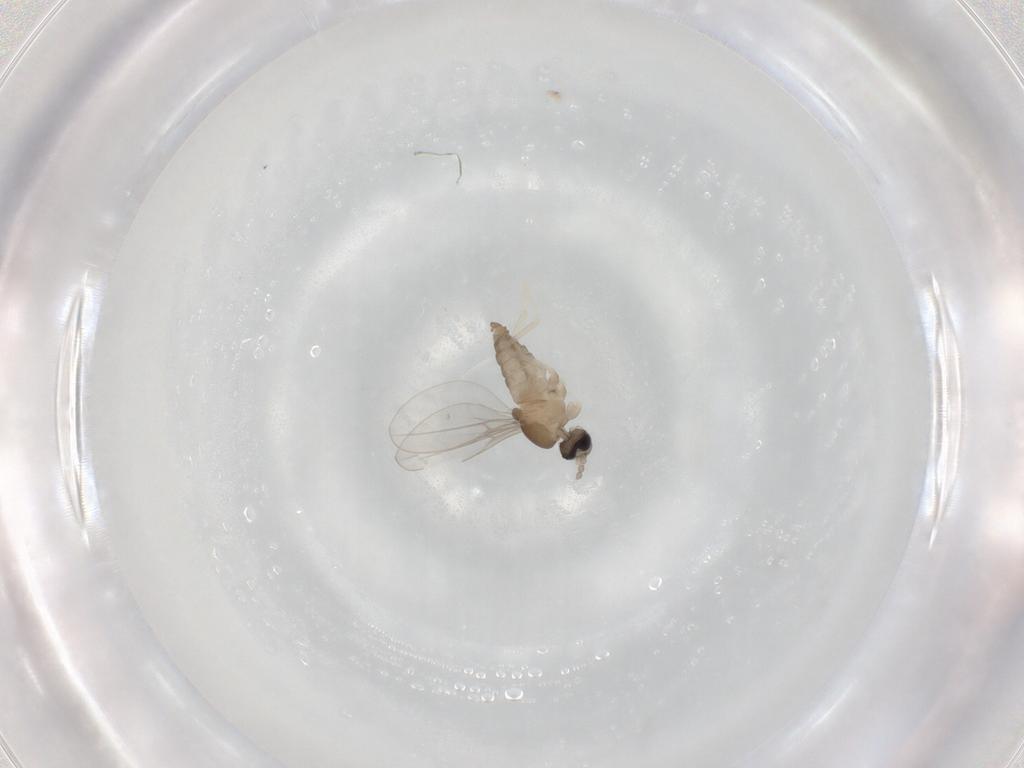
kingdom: Animalia
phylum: Arthropoda
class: Insecta
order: Diptera
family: Cecidomyiidae
